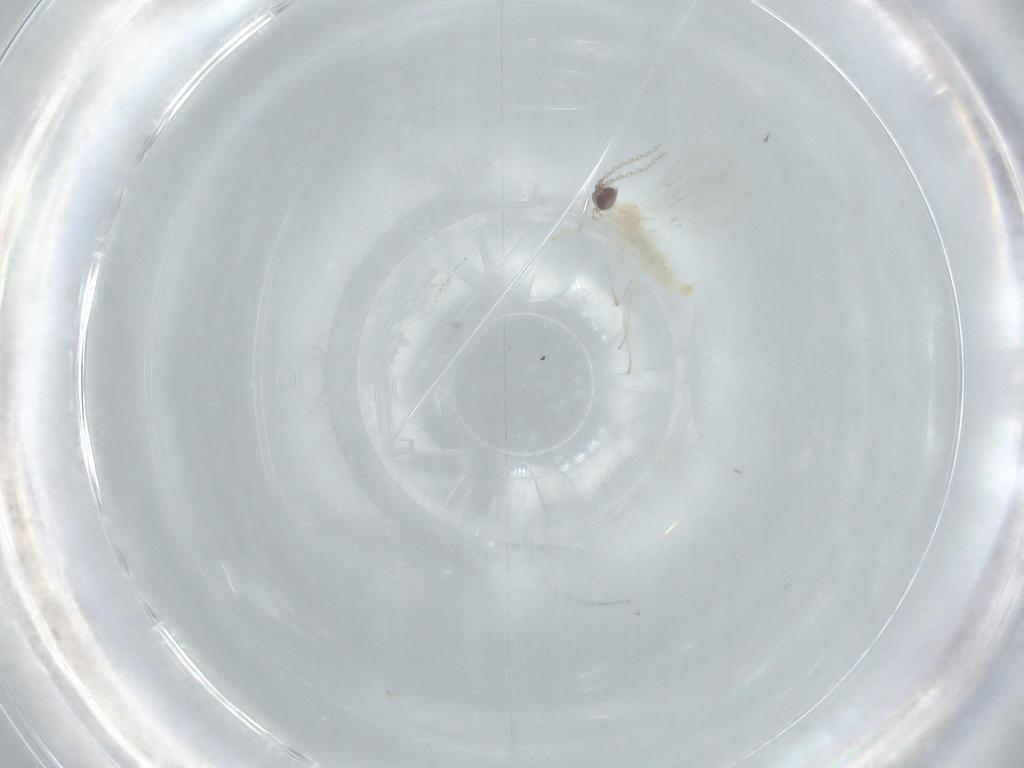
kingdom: Animalia
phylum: Arthropoda
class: Insecta
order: Diptera
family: Cecidomyiidae
